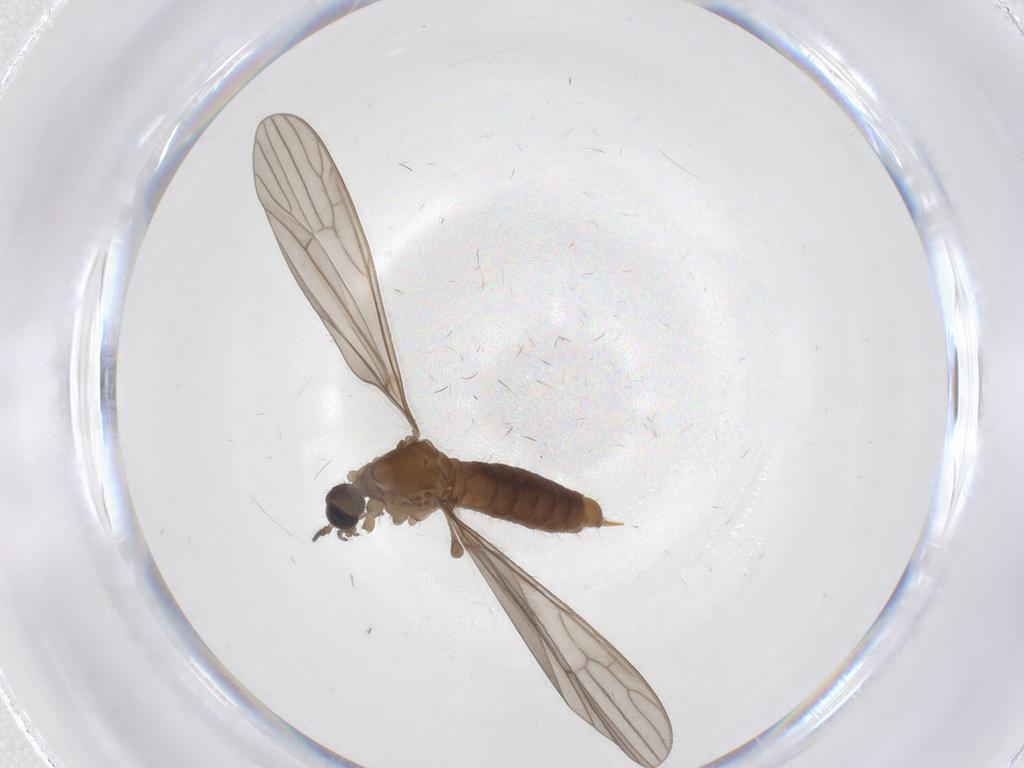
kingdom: Animalia
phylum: Arthropoda
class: Insecta
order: Diptera
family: Limoniidae
